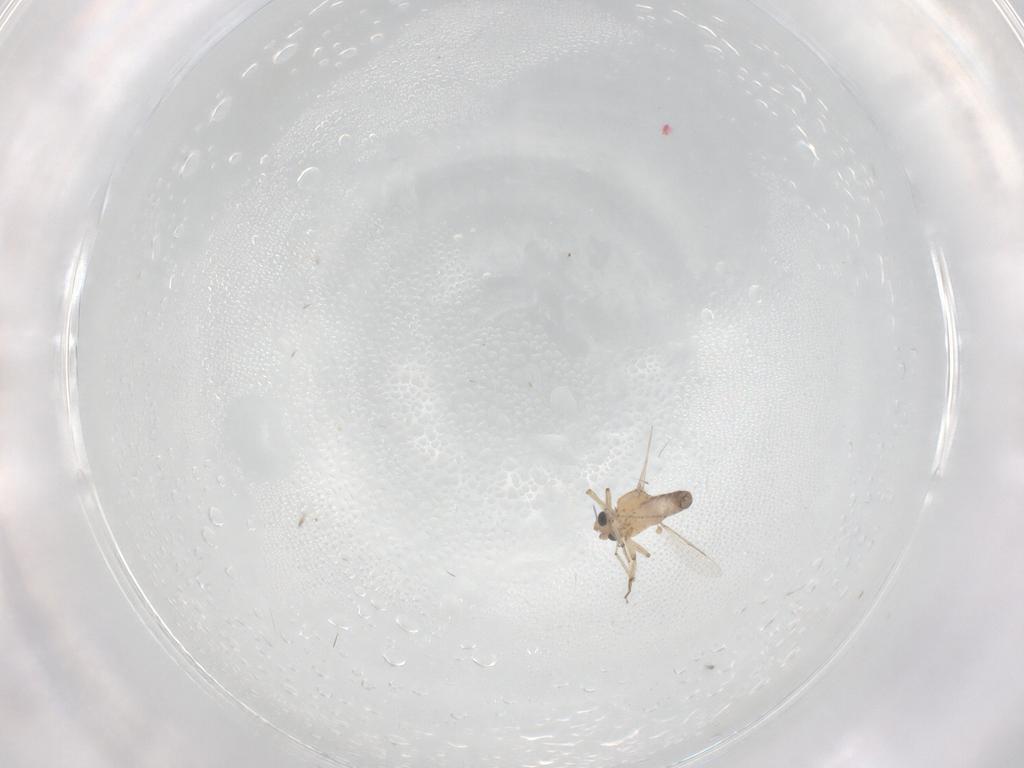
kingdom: Animalia
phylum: Arthropoda
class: Insecta
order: Diptera
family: Ceratopogonidae
